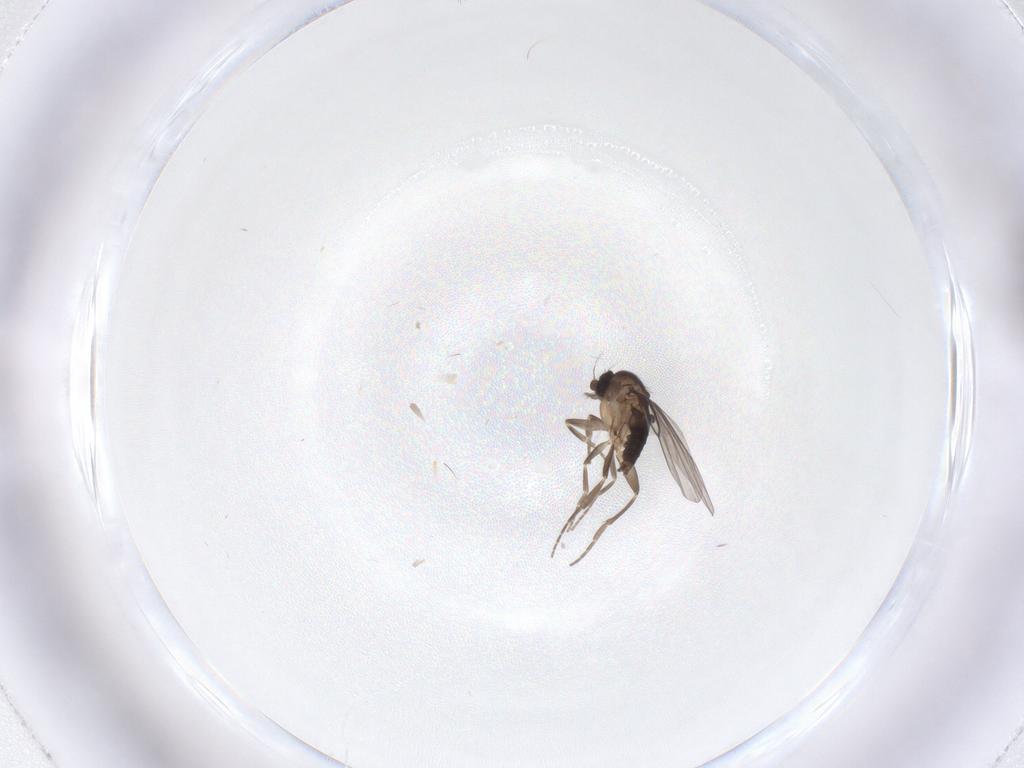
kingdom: Animalia
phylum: Arthropoda
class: Insecta
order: Diptera
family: Phoridae
